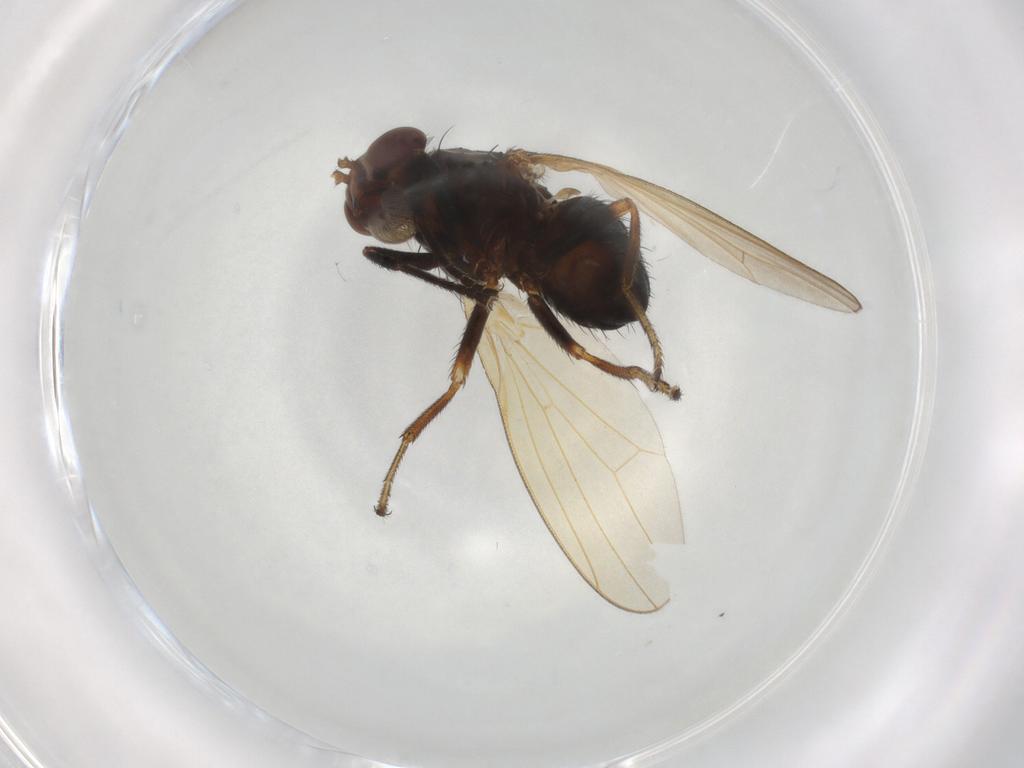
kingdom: Animalia
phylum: Arthropoda
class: Insecta
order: Diptera
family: Lauxaniidae
